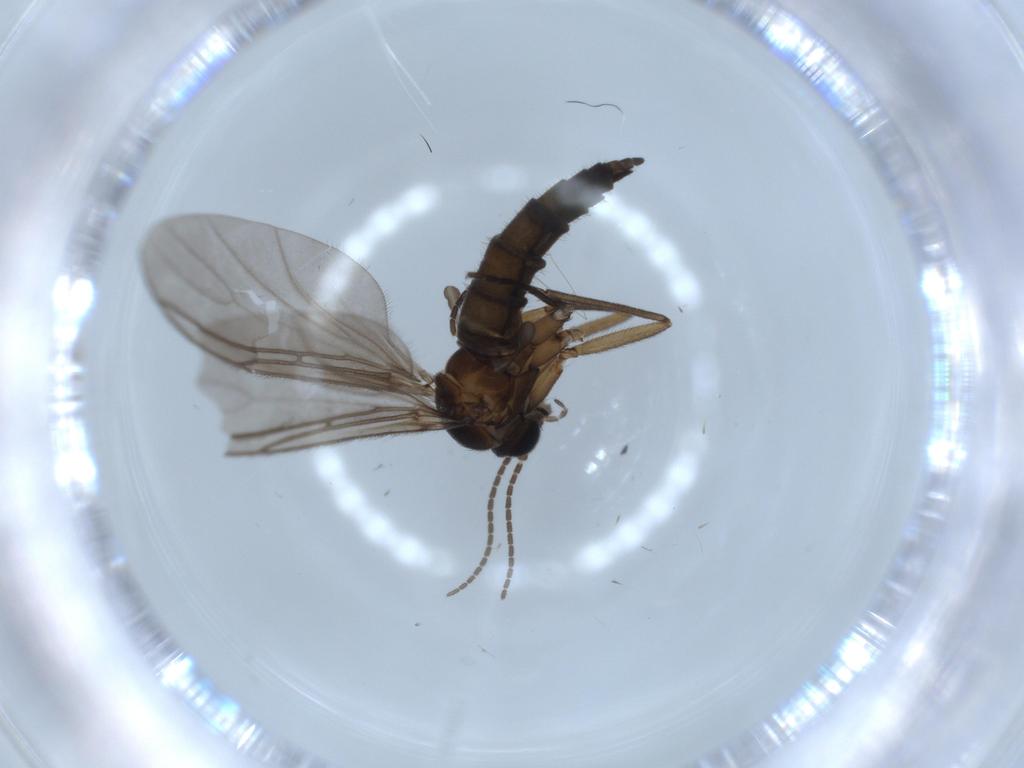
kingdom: Animalia
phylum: Arthropoda
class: Insecta
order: Diptera
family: Sciaridae
